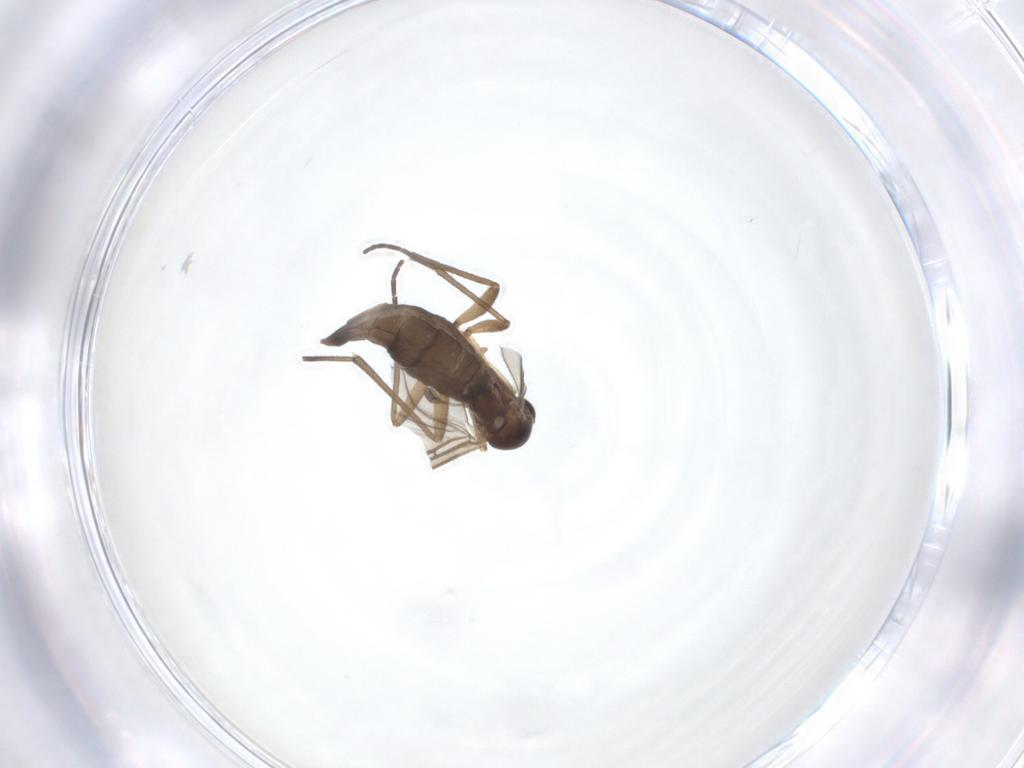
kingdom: Animalia
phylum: Arthropoda
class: Insecta
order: Diptera
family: Sciaridae
